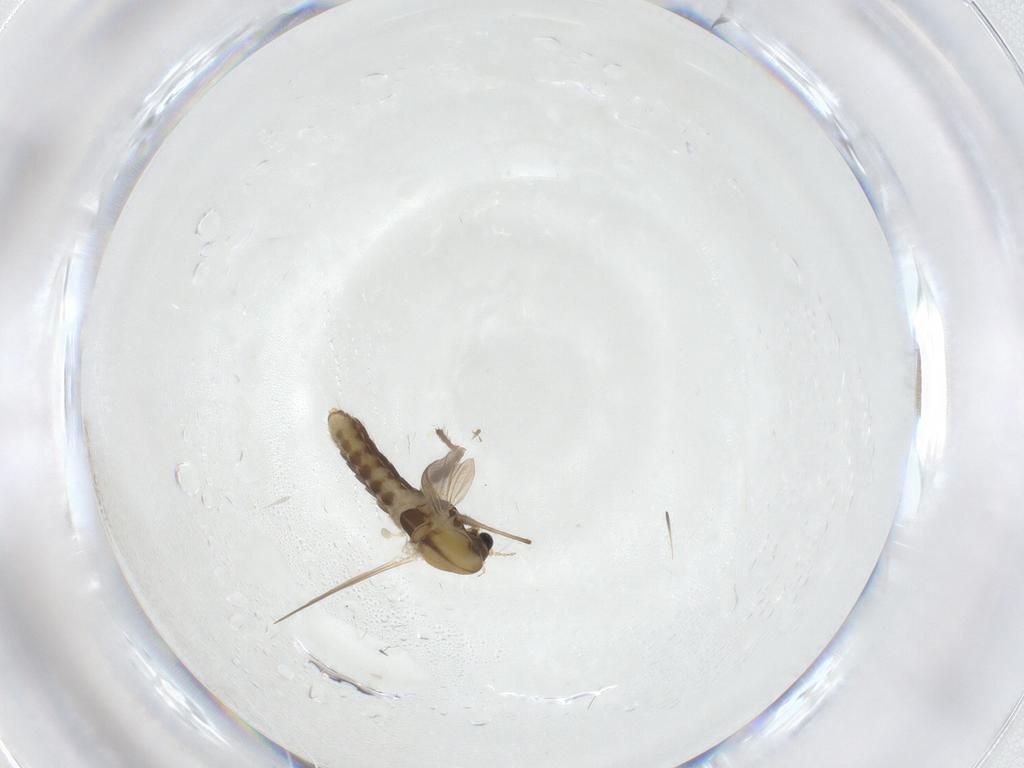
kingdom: Animalia
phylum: Arthropoda
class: Insecta
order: Diptera
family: Chironomidae
